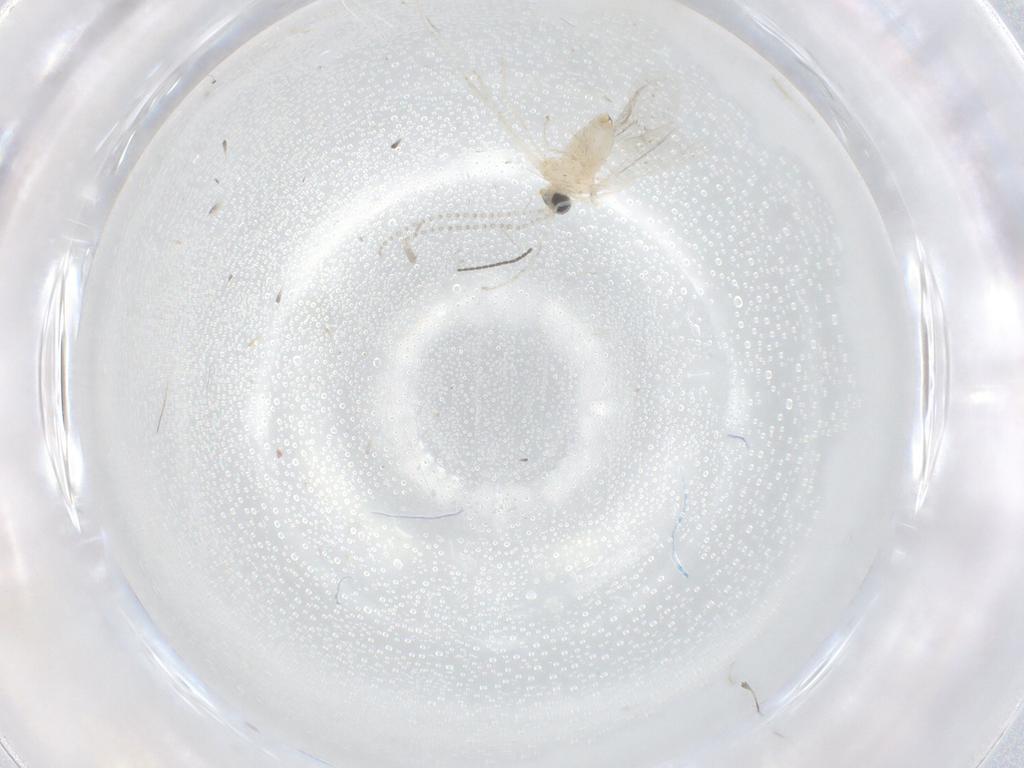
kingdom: Animalia
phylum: Arthropoda
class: Insecta
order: Diptera
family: Cecidomyiidae
